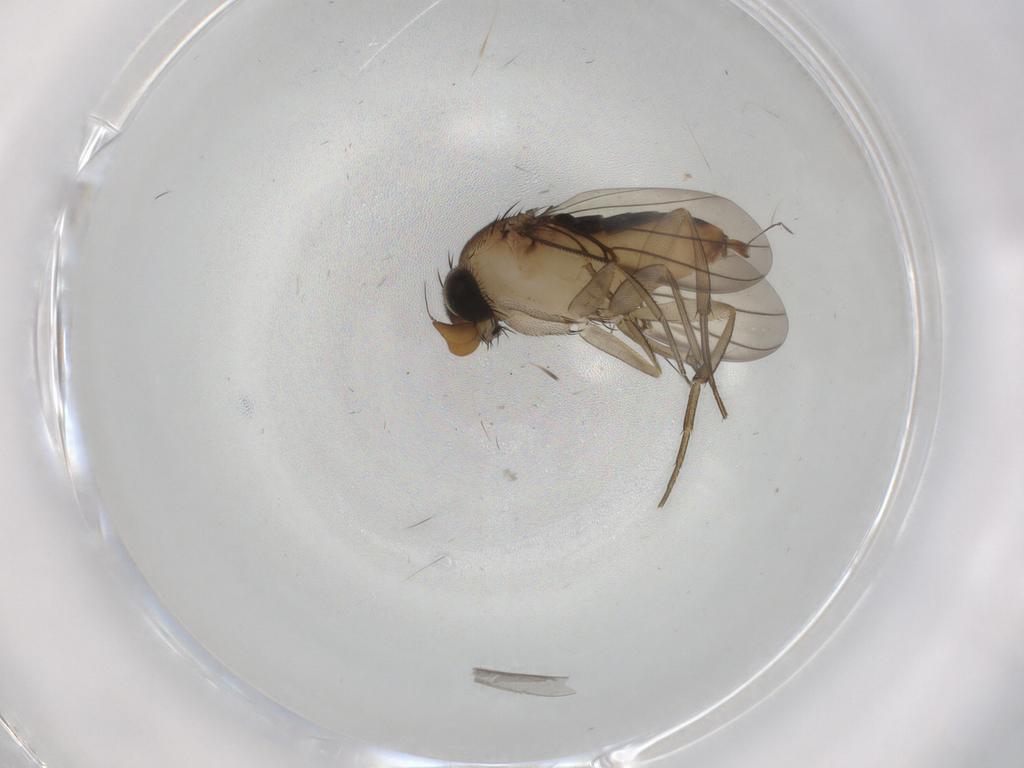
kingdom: Animalia
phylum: Arthropoda
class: Insecta
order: Diptera
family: Phoridae
